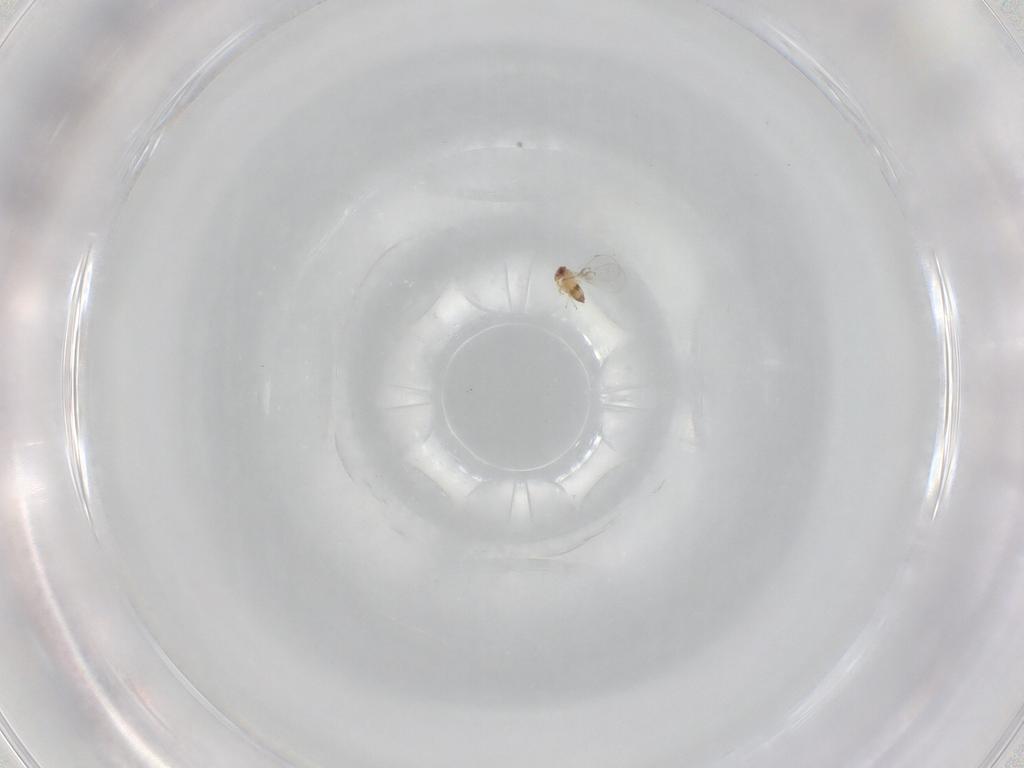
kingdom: Animalia
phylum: Arthropoda
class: Insecta
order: Hymenoptera
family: Trichogrammatidae
